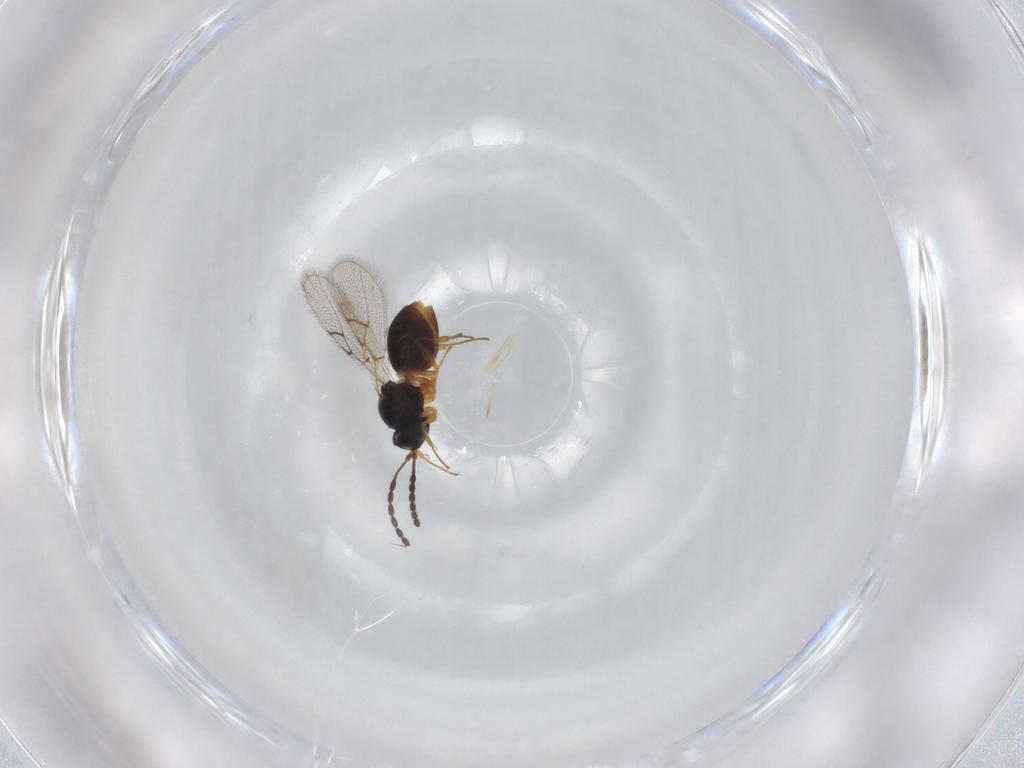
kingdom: Animalia
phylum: Arthropoda
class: Insecta
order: Hymenoptera
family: Figitidae
